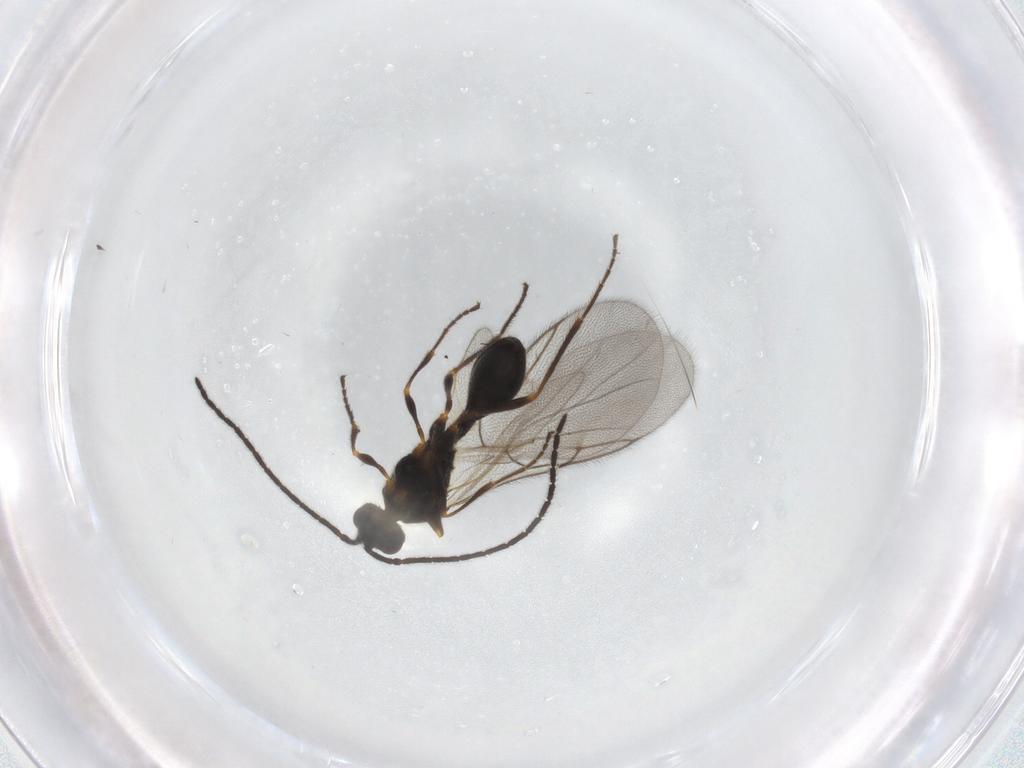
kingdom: Animalia
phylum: Arthropoda
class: Insecta
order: Hymenoptera
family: Diapriidae
